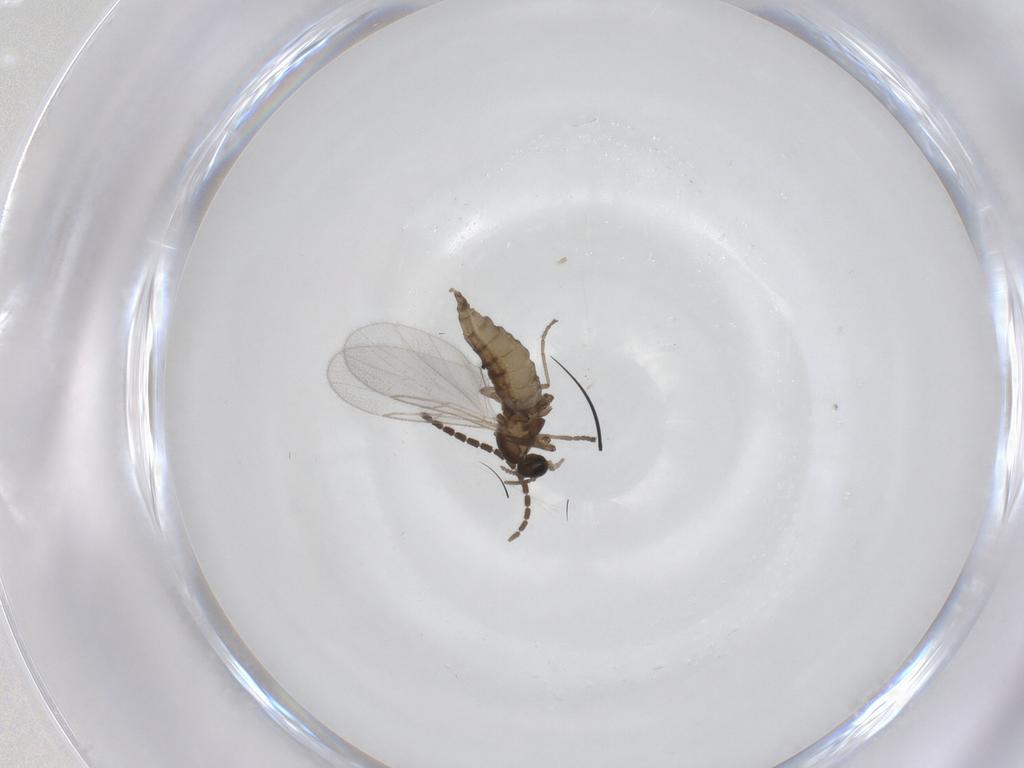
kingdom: Animalia
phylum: Arthropoda
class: Insecta
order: Diptera
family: Cecidomyiidae
